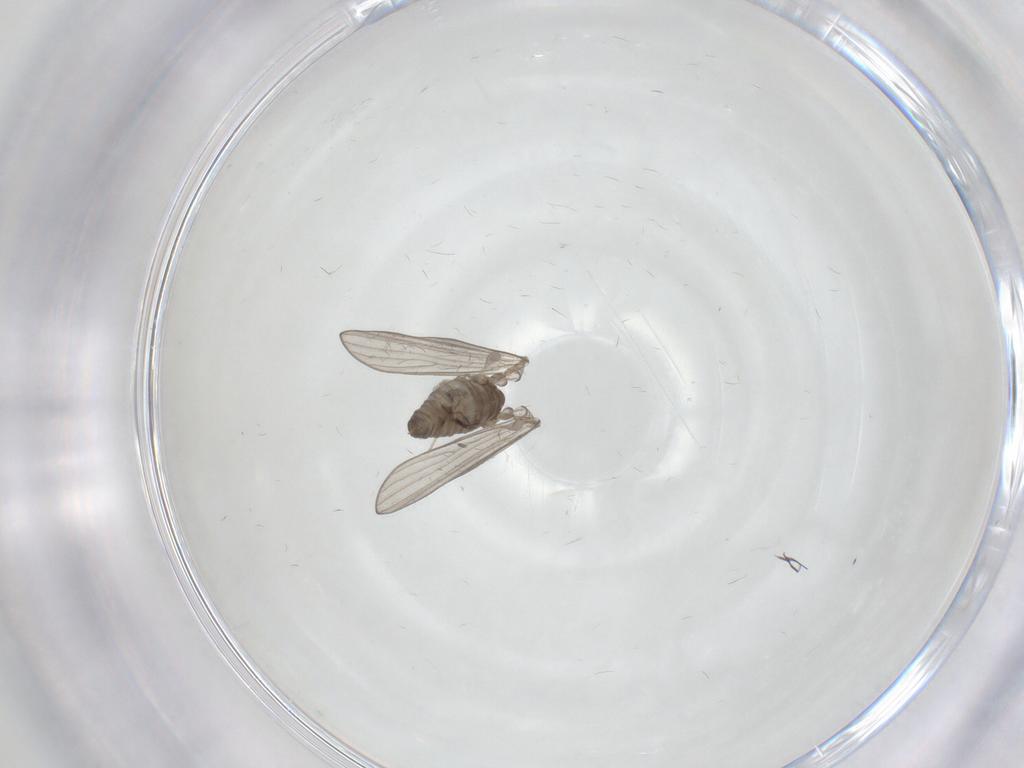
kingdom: Animalia
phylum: Arthropoda
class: Insecta
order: Diptera
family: Chironomidae
